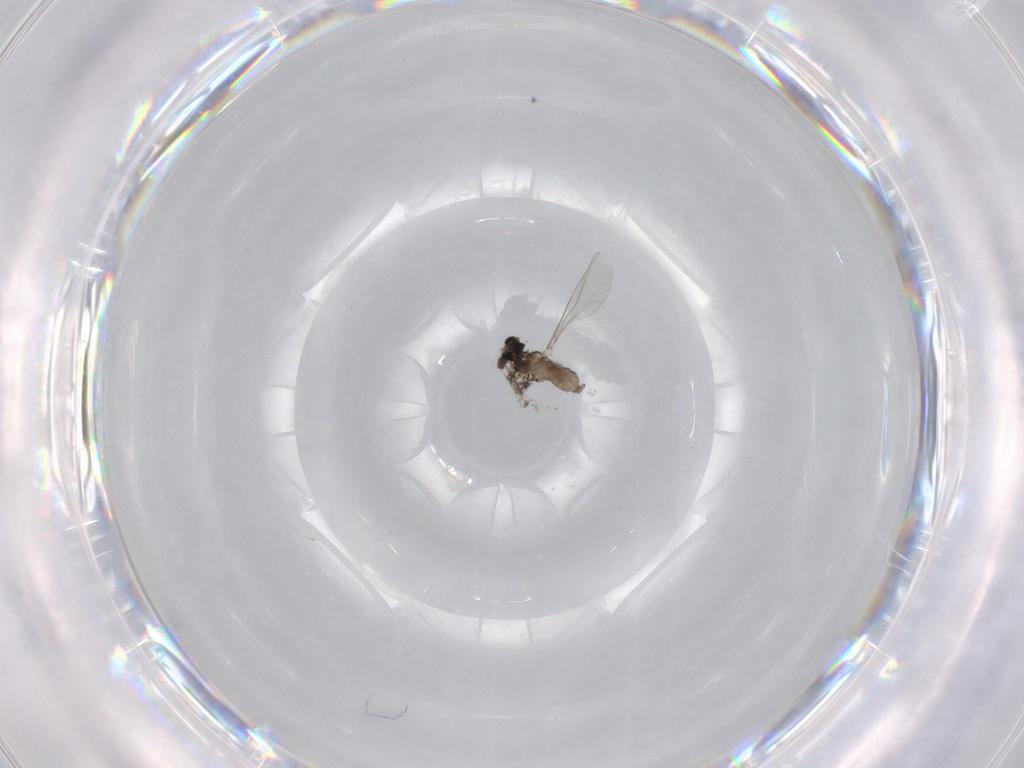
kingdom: Animalia
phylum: Arthropoda
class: Insecta
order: Diptera
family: Cecidomyiidae
